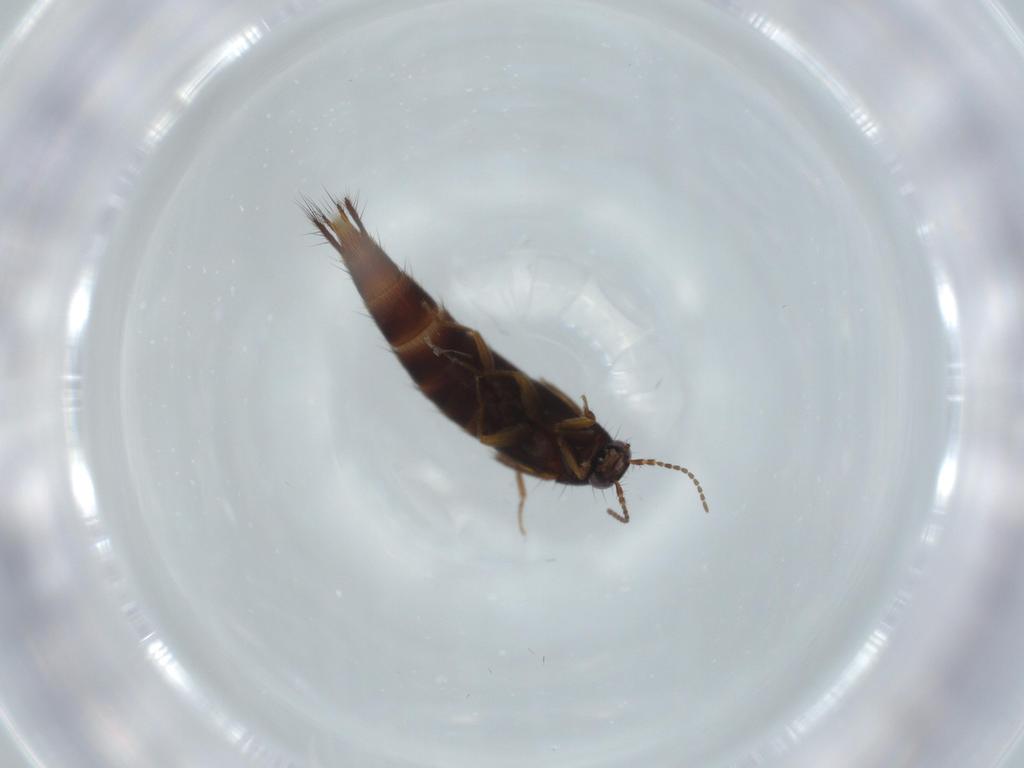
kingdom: Animalia
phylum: Arthropoda
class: Insecta
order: Coleoptera
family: Staphylinidae
